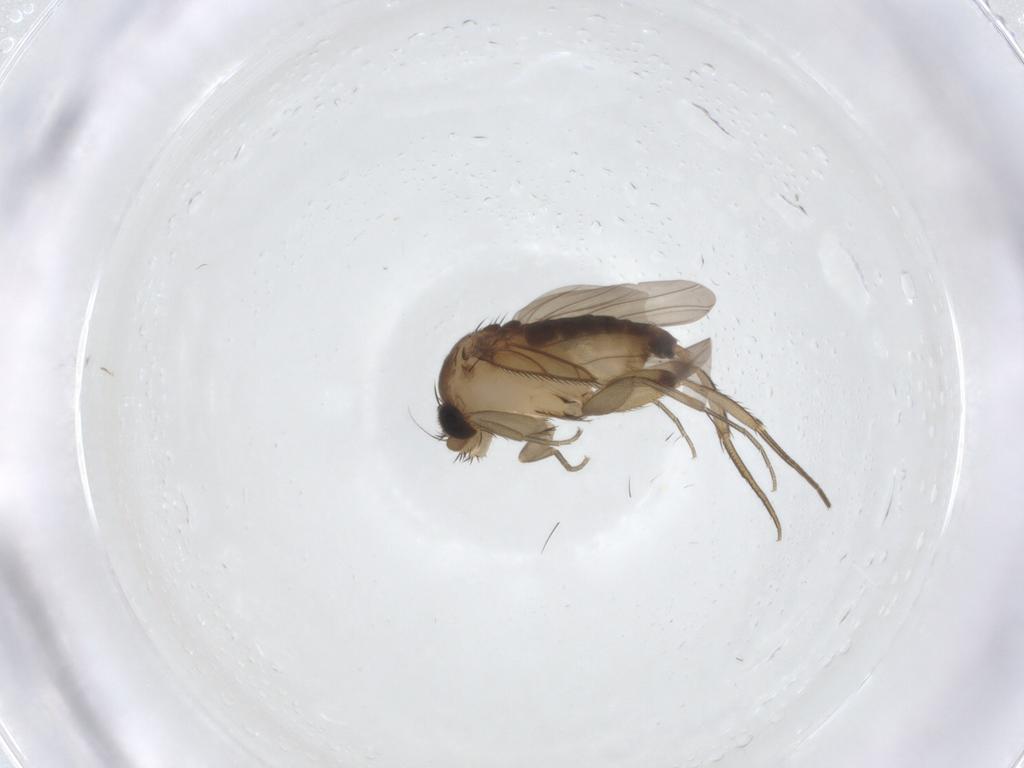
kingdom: Animalia
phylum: Arthropoda
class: Insecta
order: Diptera
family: Phoridae
